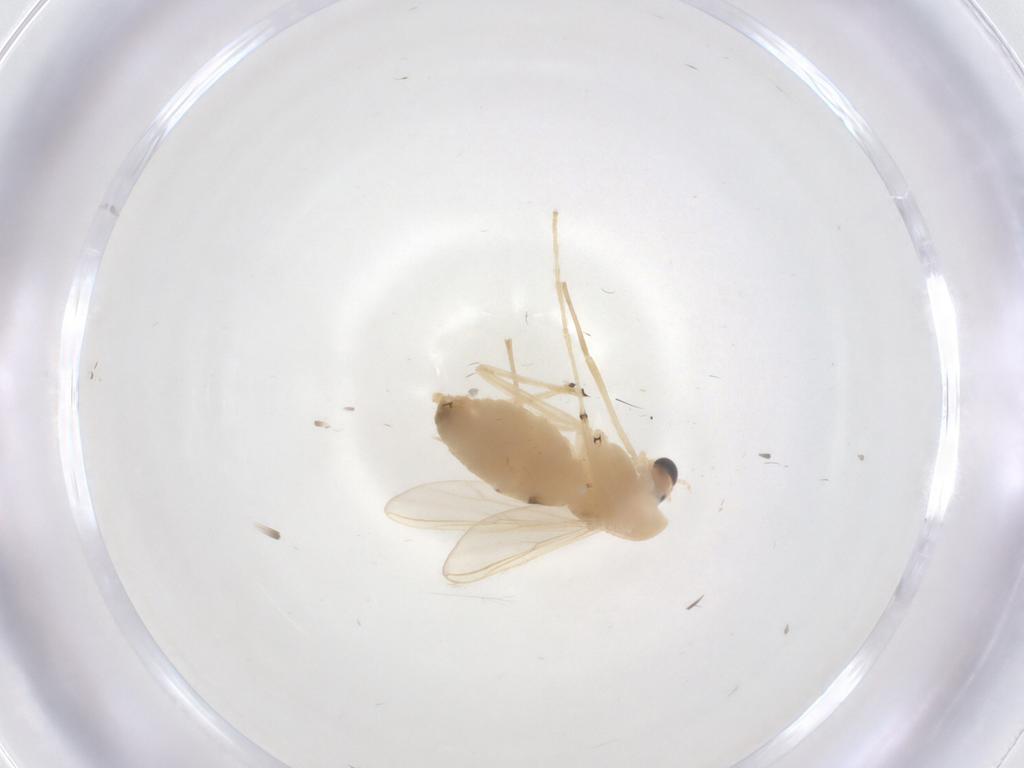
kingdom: Animalia
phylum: Arthropoda
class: Insecta
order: Diptera
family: Chironomidae
